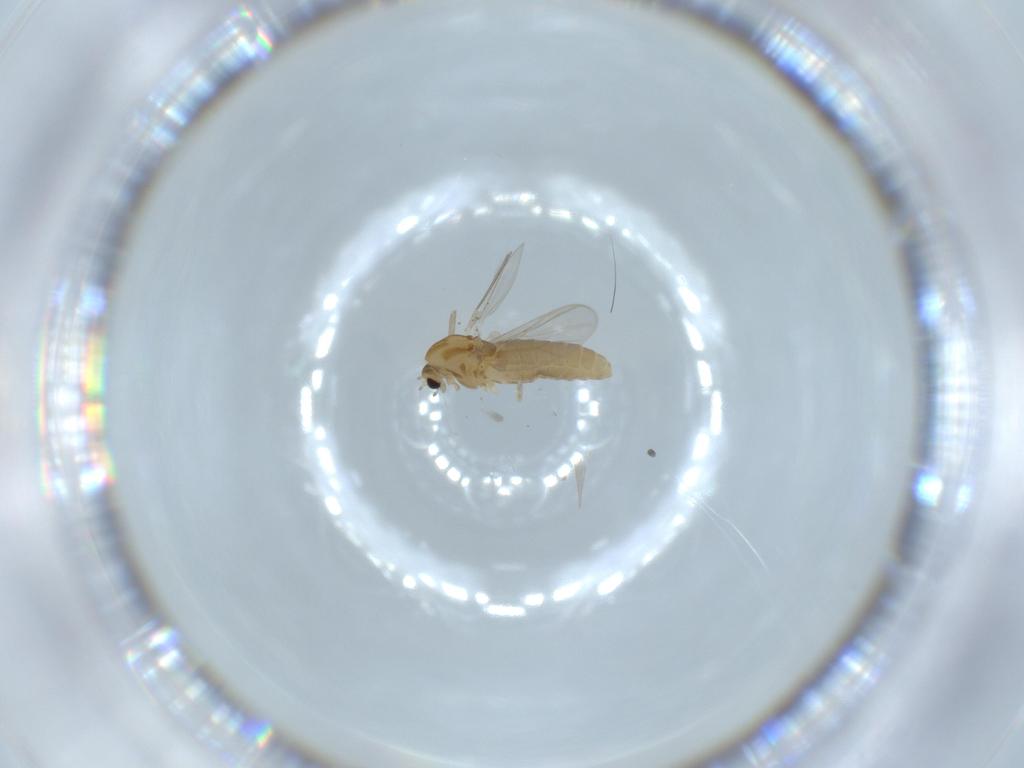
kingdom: Animalia
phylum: Arthropoda
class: Insecta
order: Diptera
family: Chironomidae
